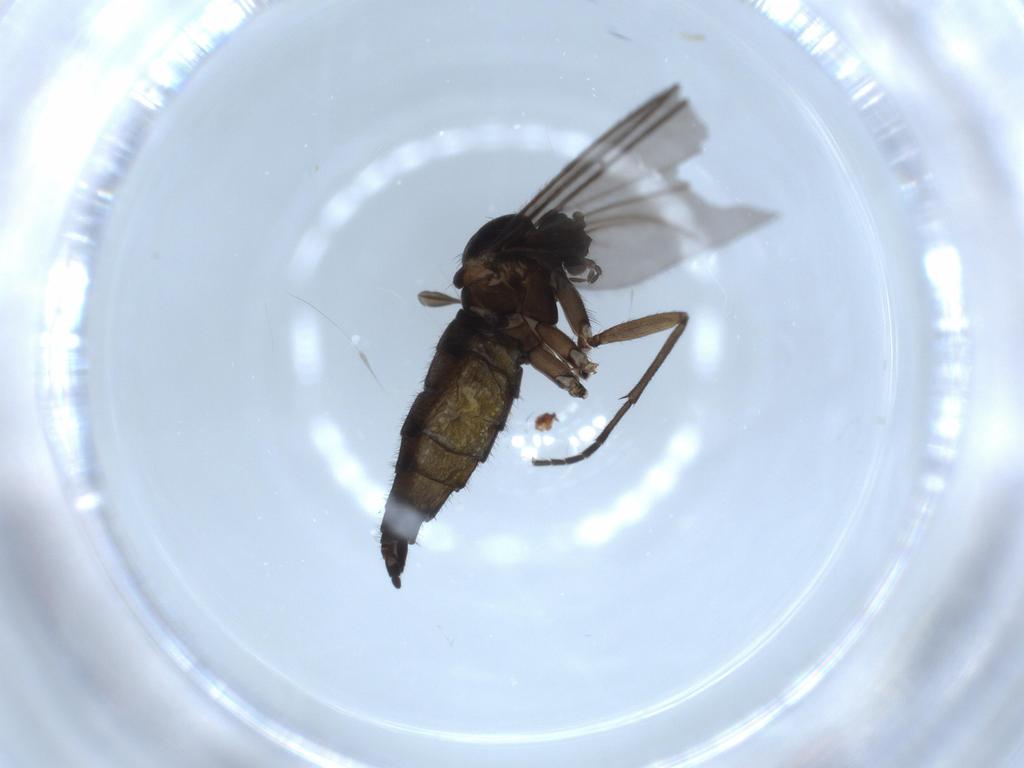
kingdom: Animalia
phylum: Arthropoda
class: Insecta
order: Diptera
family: Sciaridae
